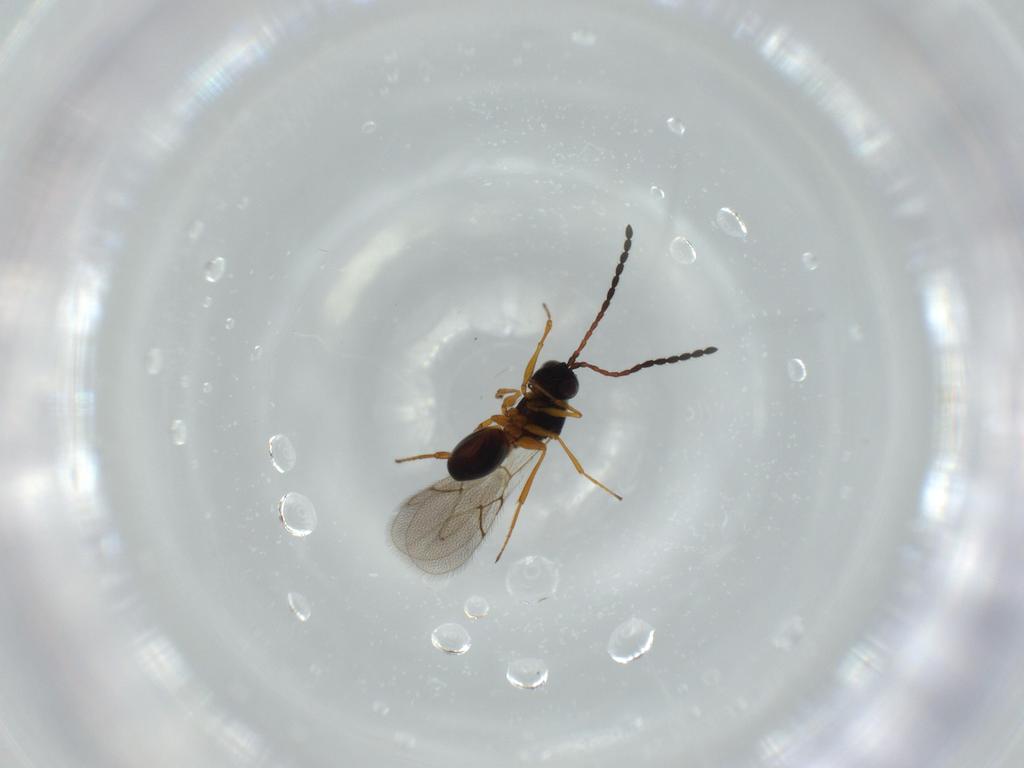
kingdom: Animalia
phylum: Arthropoda
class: Insecta
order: Hymenoptera
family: Figitidae
